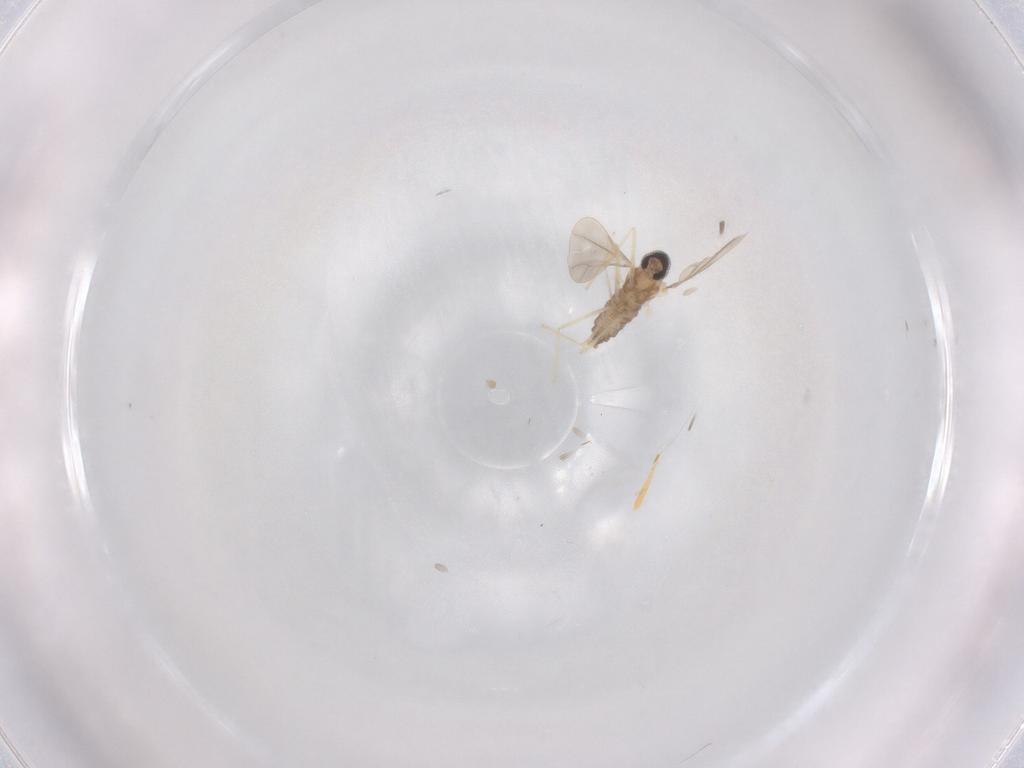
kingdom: Animalia
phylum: Arthropoda
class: Insecta
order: Diptera
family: Cecidomyiidae
